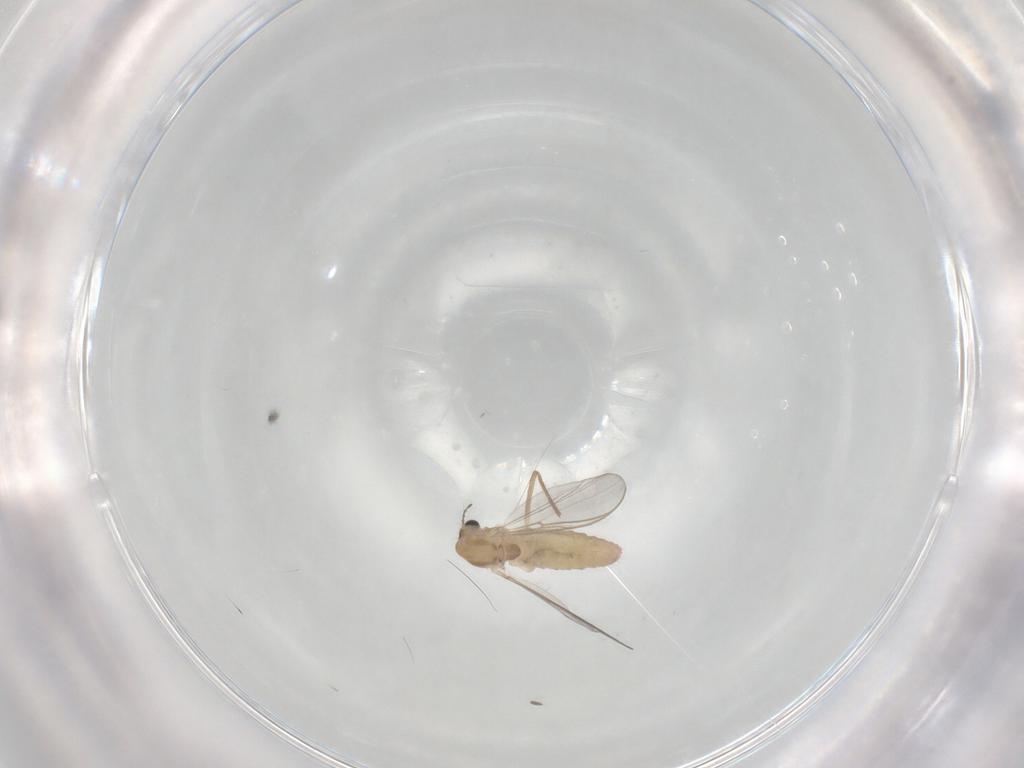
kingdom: Animalia
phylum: Arthropoda
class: Insecta
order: Diptera
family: Chironomidae
